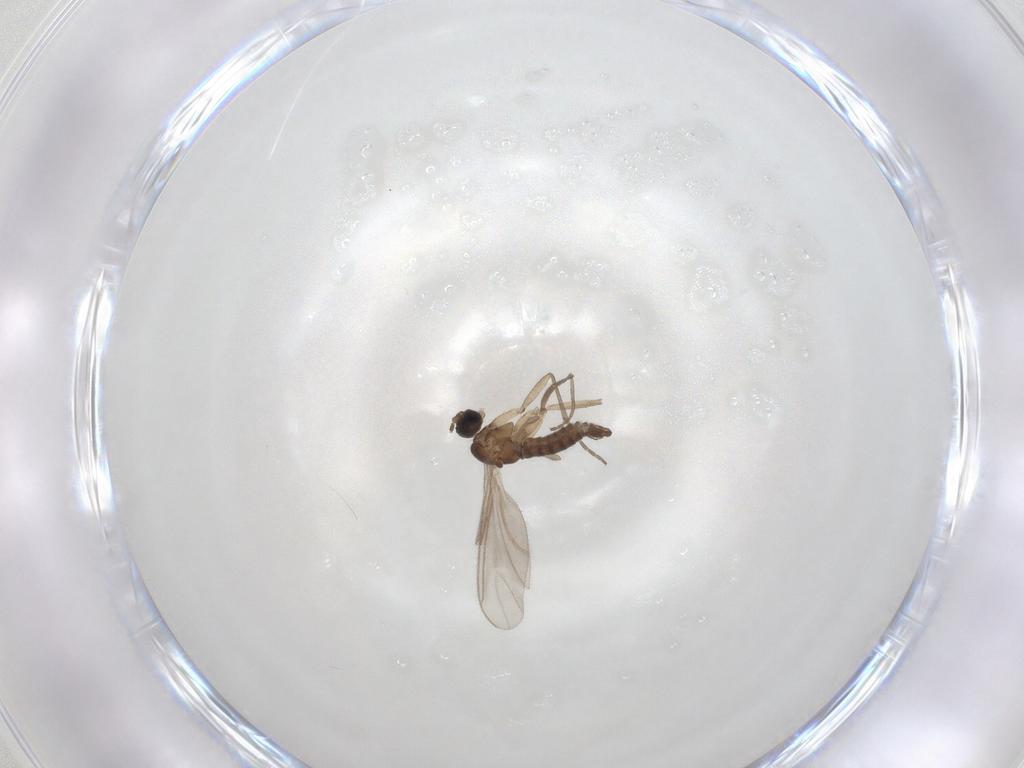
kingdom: Animalia
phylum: Arthropoda
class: Insecta
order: Diptera
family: Sciaridae
